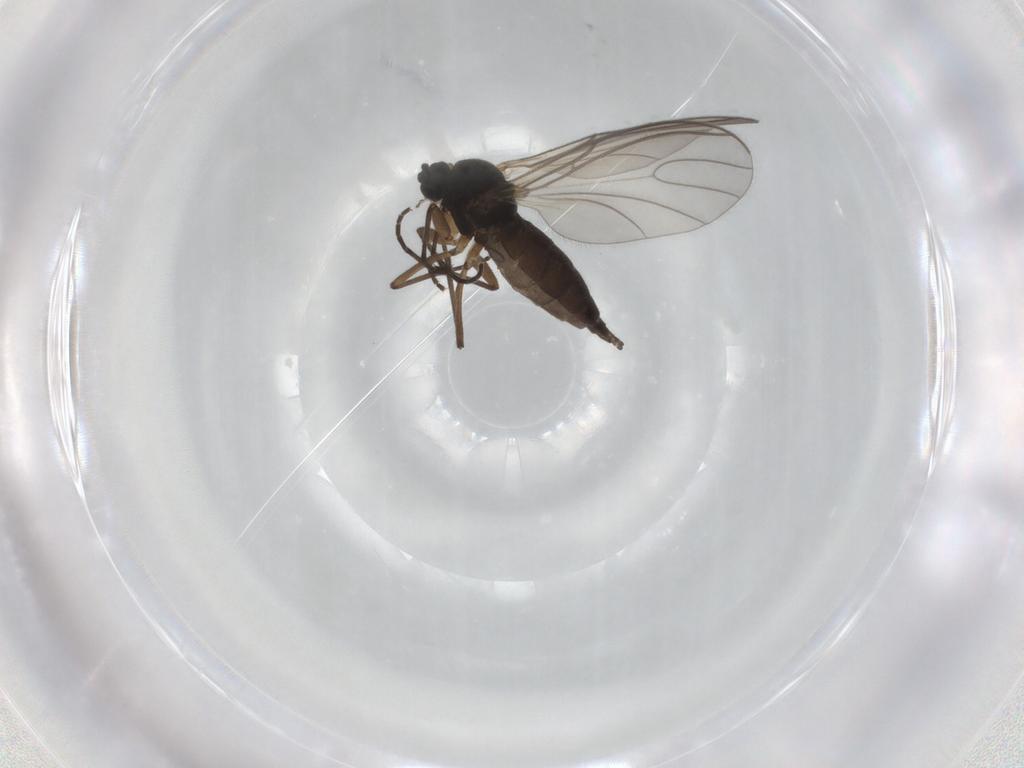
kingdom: Animalia
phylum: Arthropoda
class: Insecta
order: Diptera
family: Sciaridae
